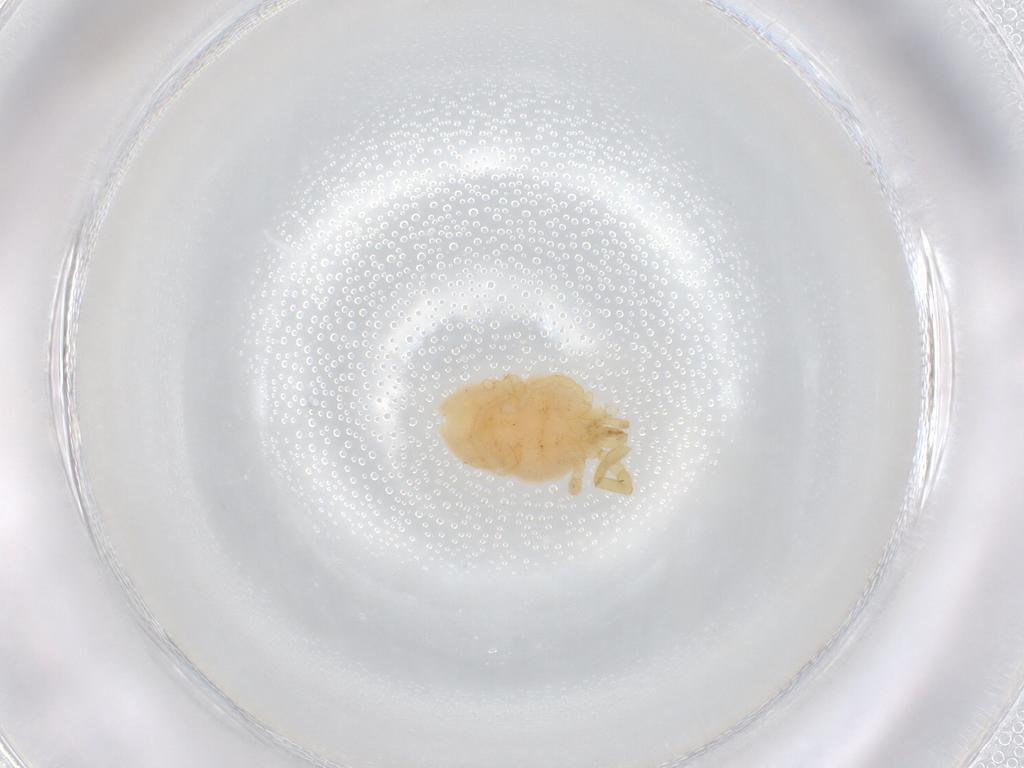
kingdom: Animalia
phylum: Arthropoda
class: Arachnida
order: Trombidiformes
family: Erythraeidae
